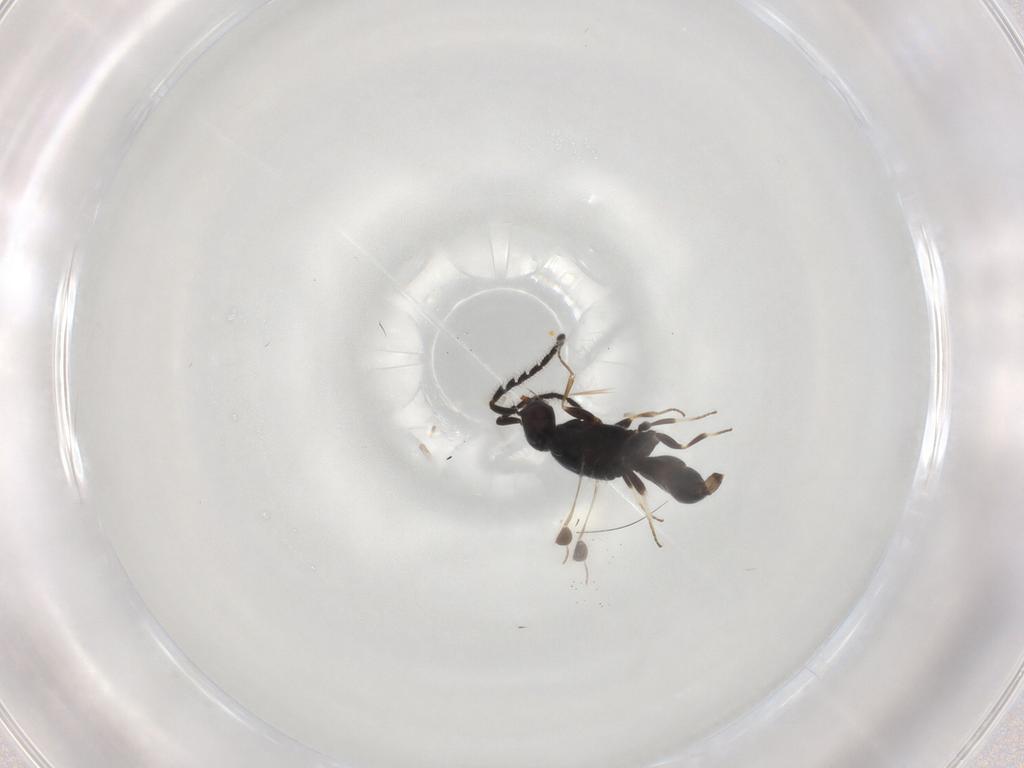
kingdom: Animalia
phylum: Arthropoda
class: Insecta
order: Hymenoptera
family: Megaspilidae
